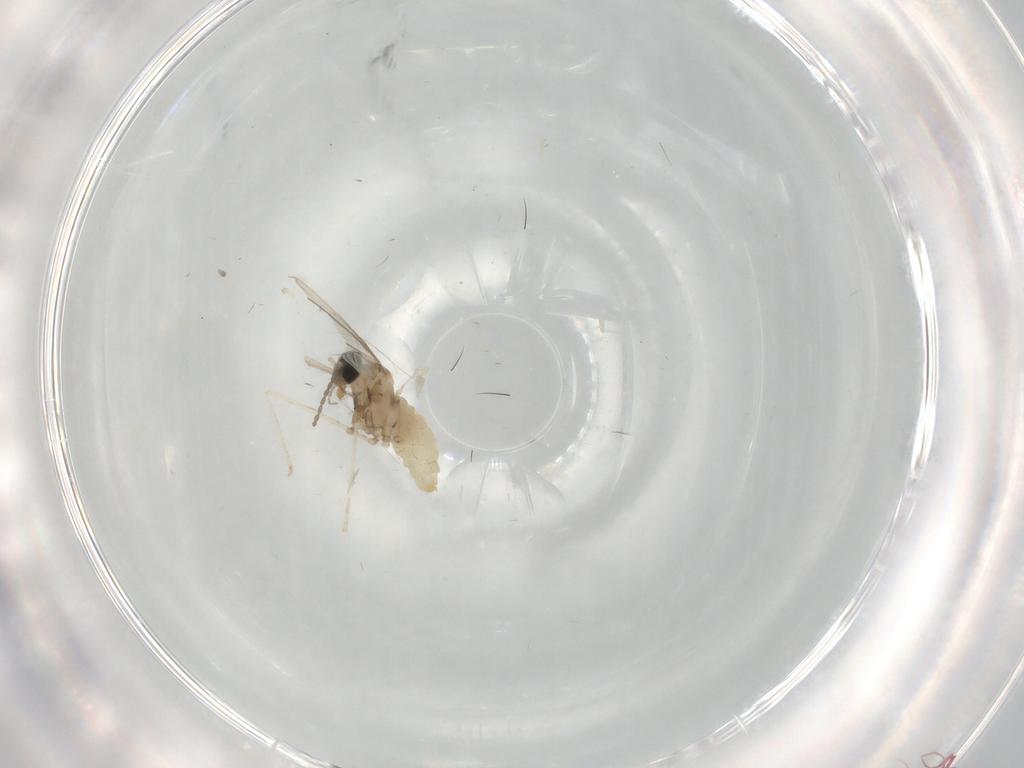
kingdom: Animalia
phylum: Arthropoda
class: Insecta
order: Diptera
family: Cecidomyiidae
